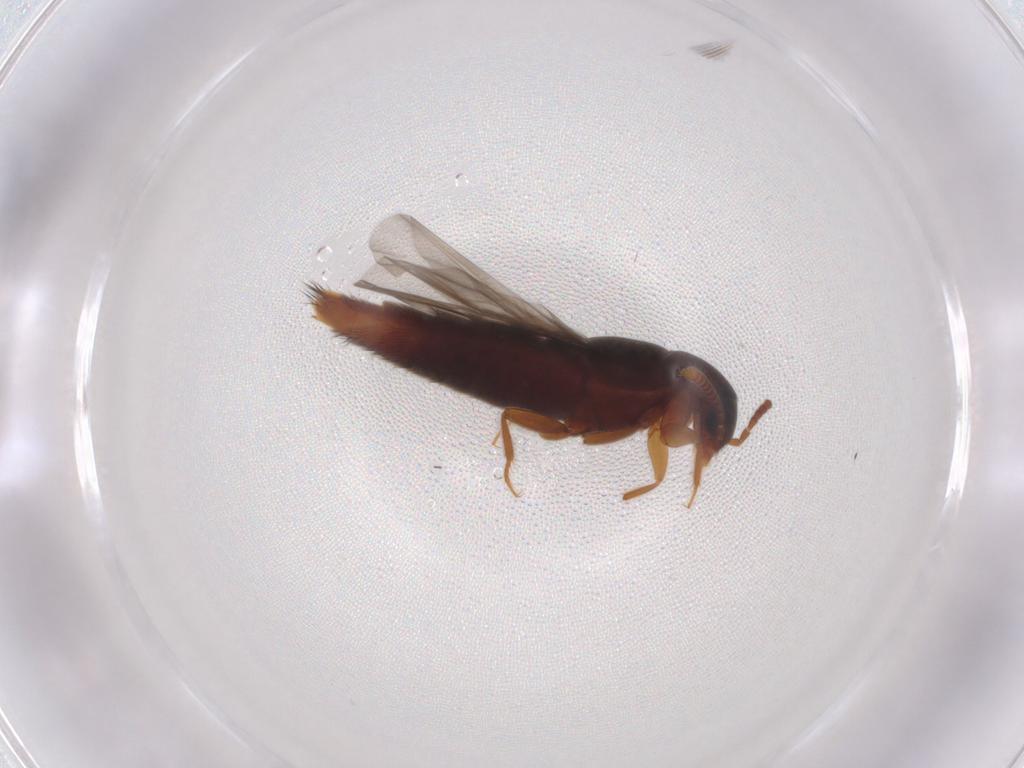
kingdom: Animalia
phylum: Arthropoda
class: Insecta
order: Coleoptera
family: Staphylinidae
